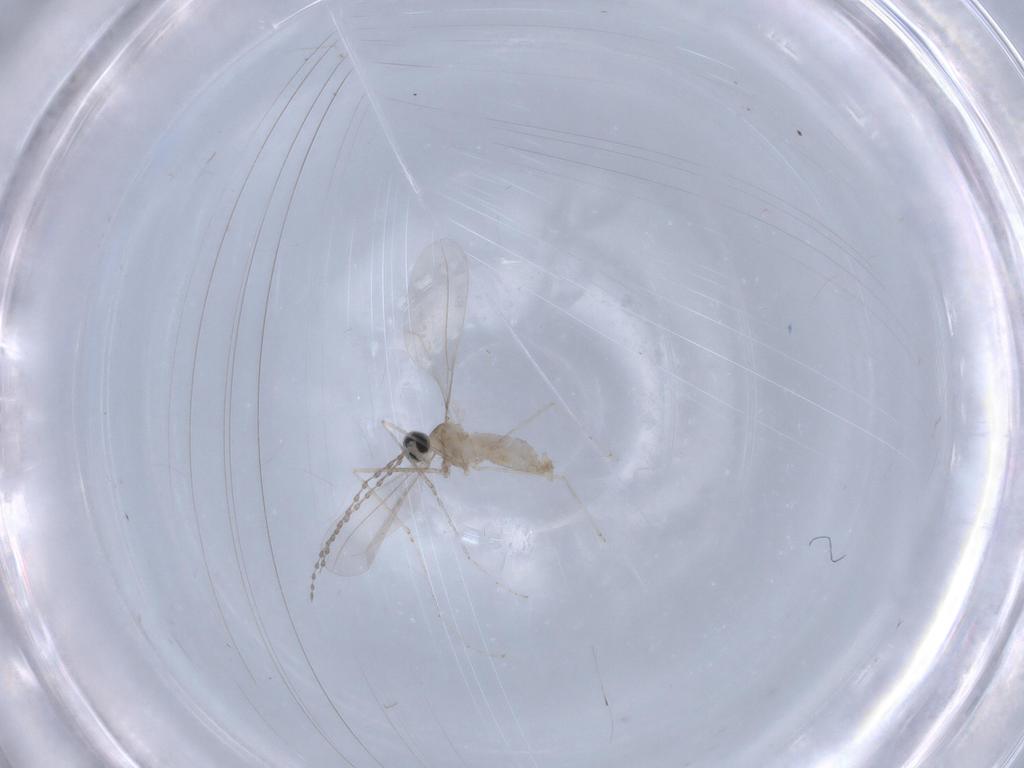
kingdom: Animalia
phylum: Arthropoda
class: Insecta
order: Diptera
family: Cecidomyiidae
